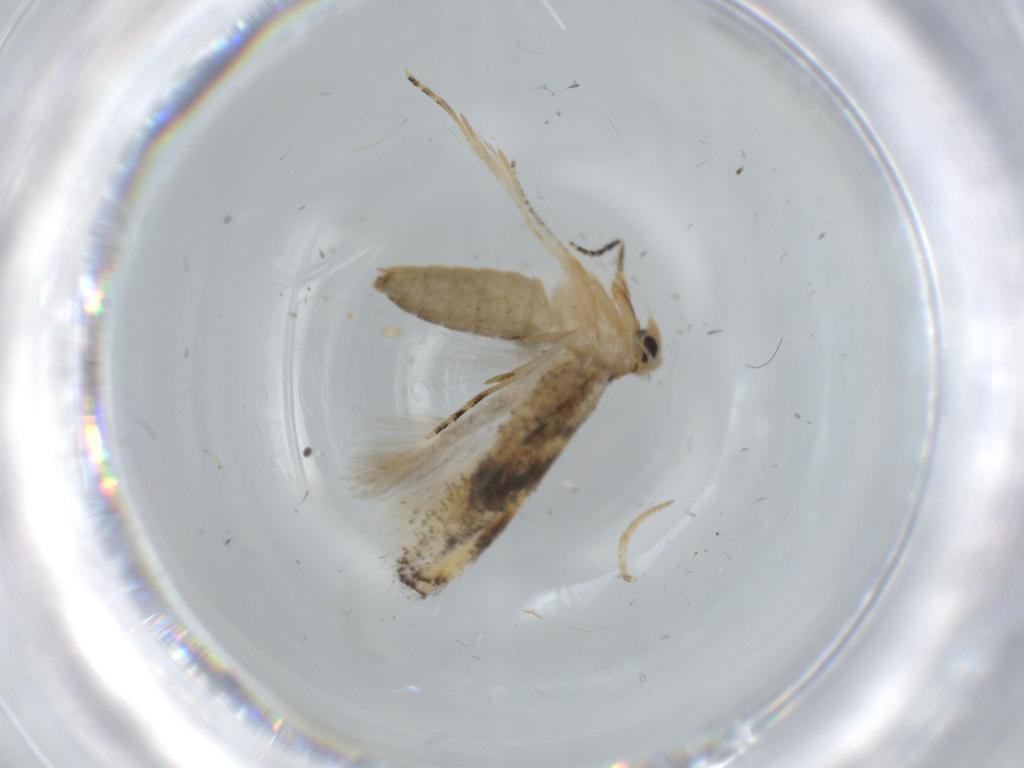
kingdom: Animalia
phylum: Arthropoda
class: Insecta
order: Lepidoptera
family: Bucculatricidae
